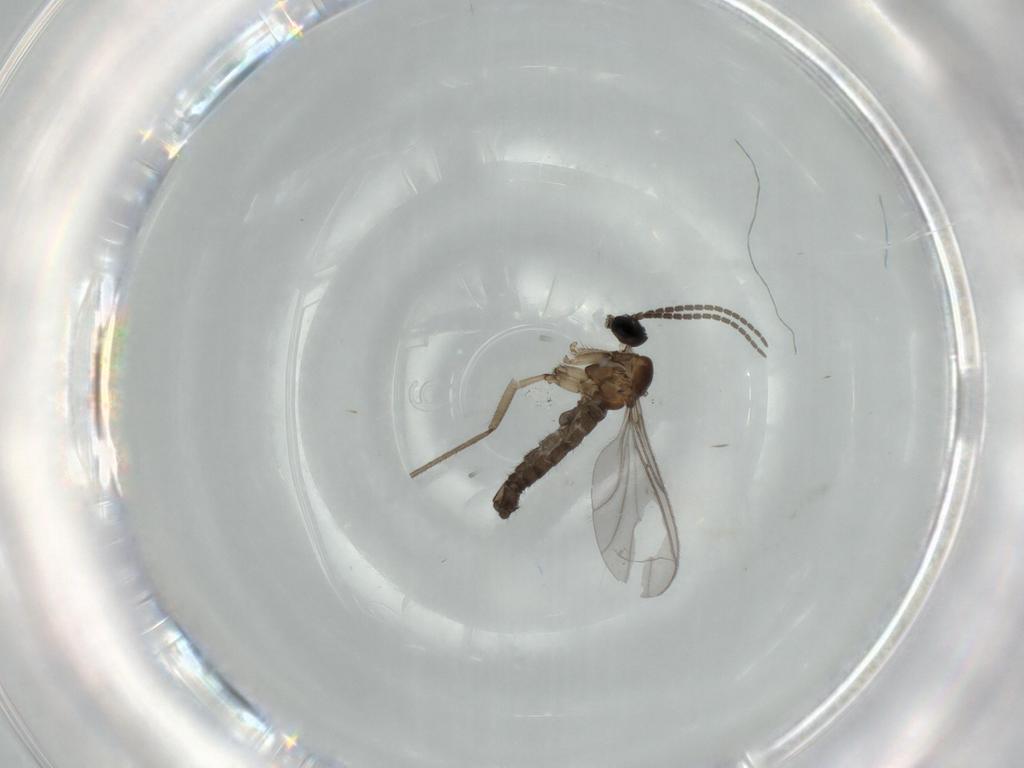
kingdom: Animalia
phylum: Arthropoda
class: Insecta
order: Diptera
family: Sciaridae
